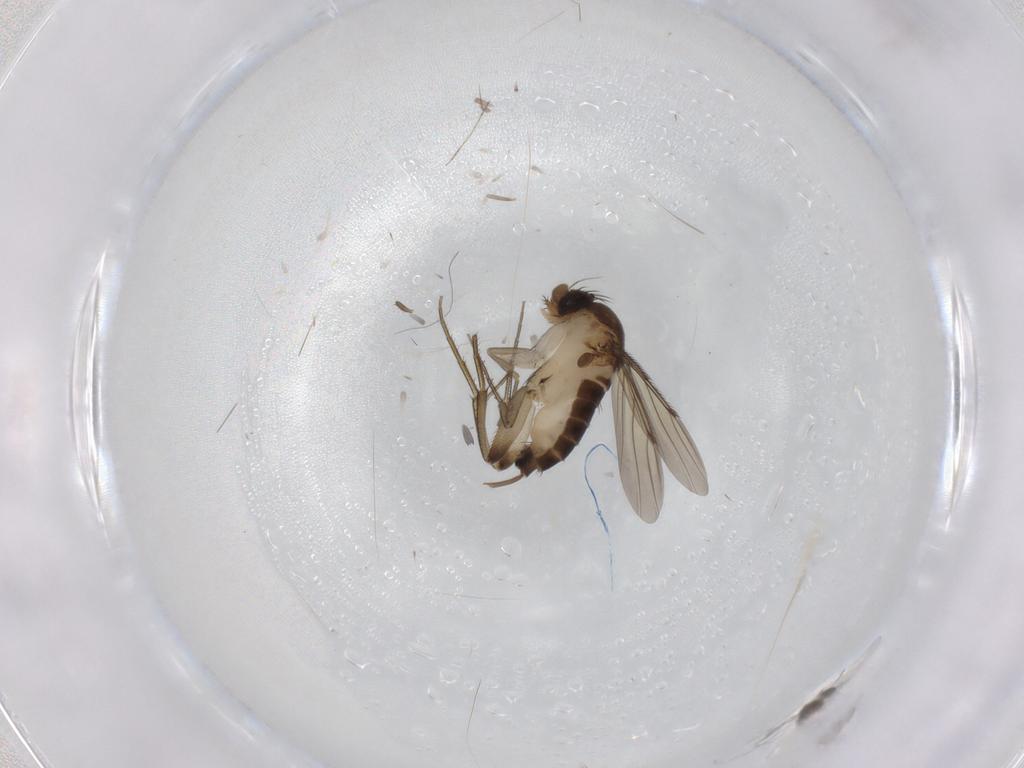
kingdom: Animalia
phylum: Arthropoda
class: Insecta
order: Diptera
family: Phoridae
